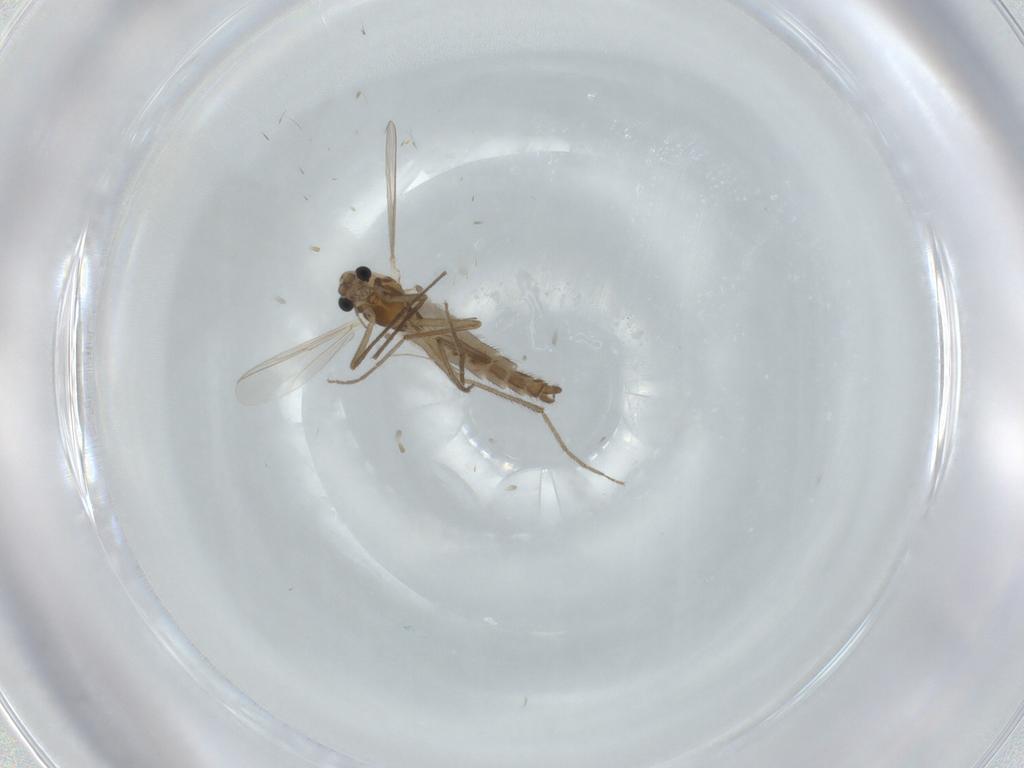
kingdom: Animalia
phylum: Arthropoda
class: Insecta
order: Diptera
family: Chironomidae
